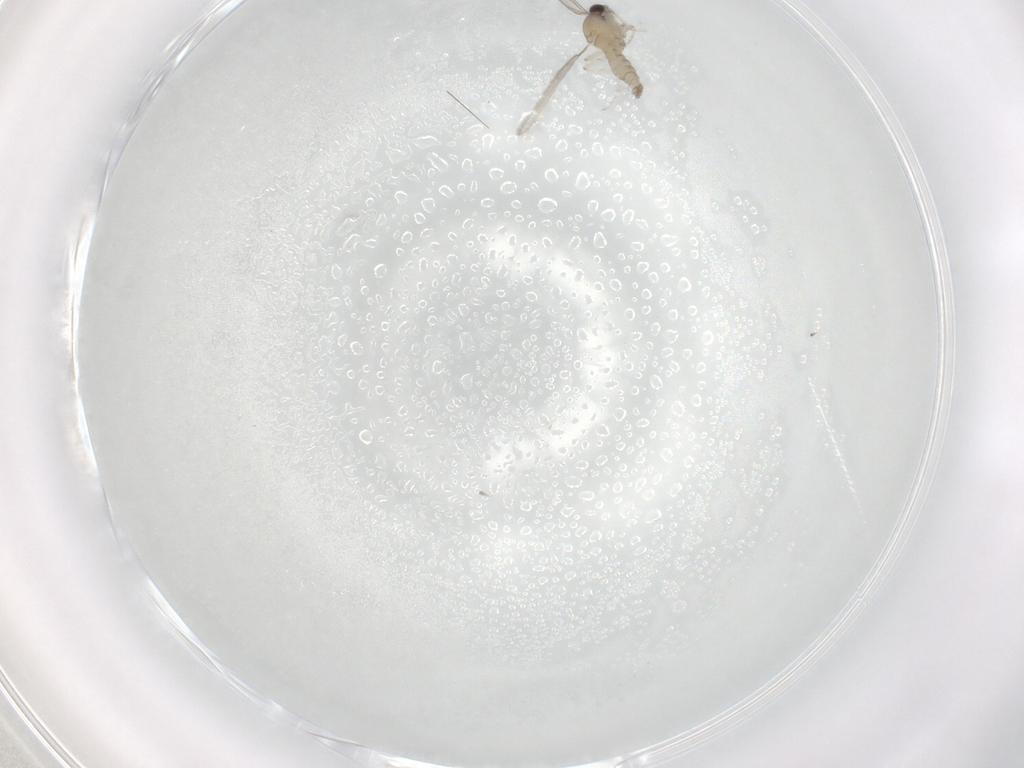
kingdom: Animalia
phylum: Arthropoda
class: Insecta
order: Diptera
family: Cecidomyiidae
